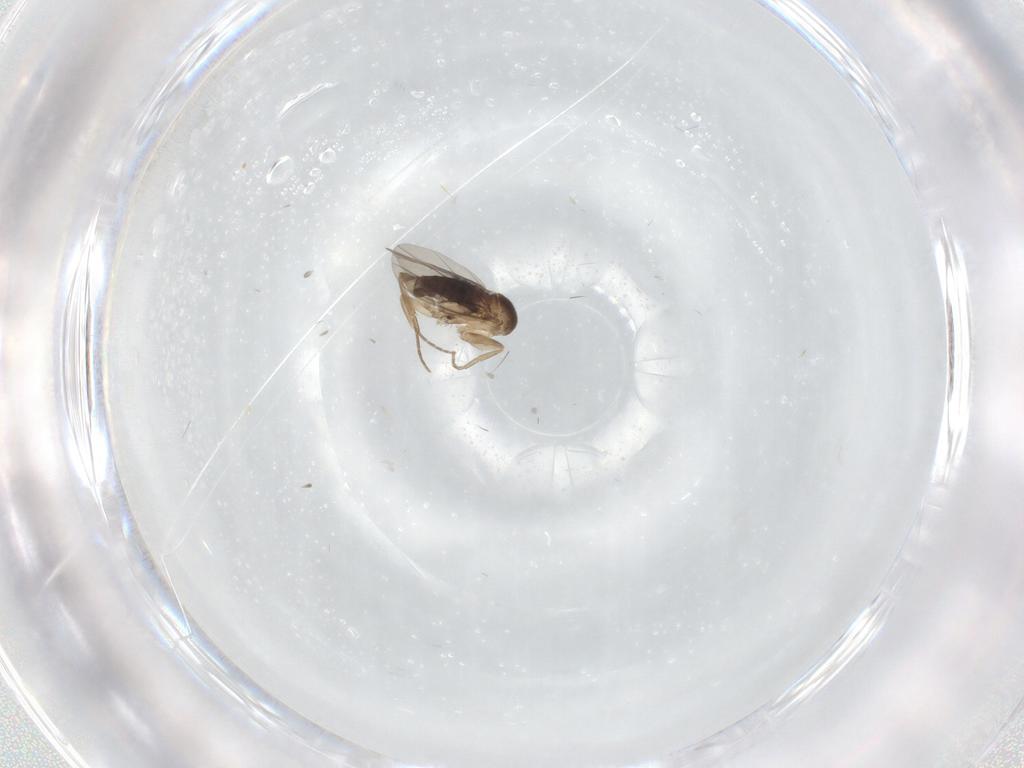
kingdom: Animalia
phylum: Arthropoda
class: Insecta
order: Diptera
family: Phoridae
